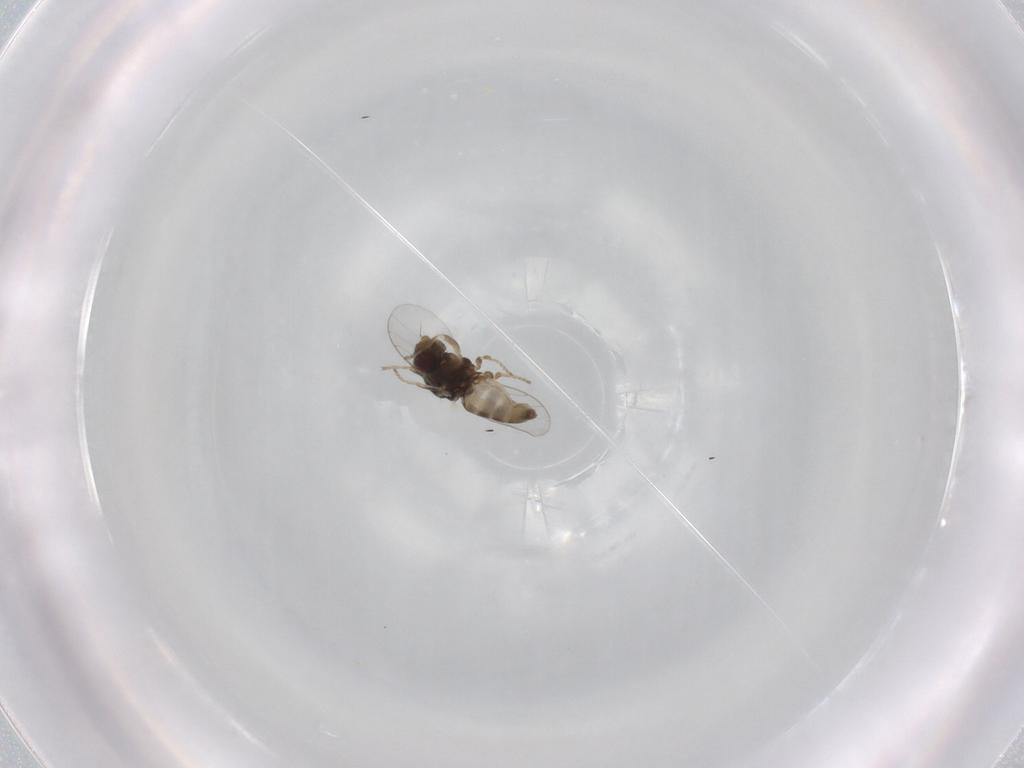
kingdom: Animalia
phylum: Arthropoda
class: Insecta
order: Diptera
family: Chloropidae
